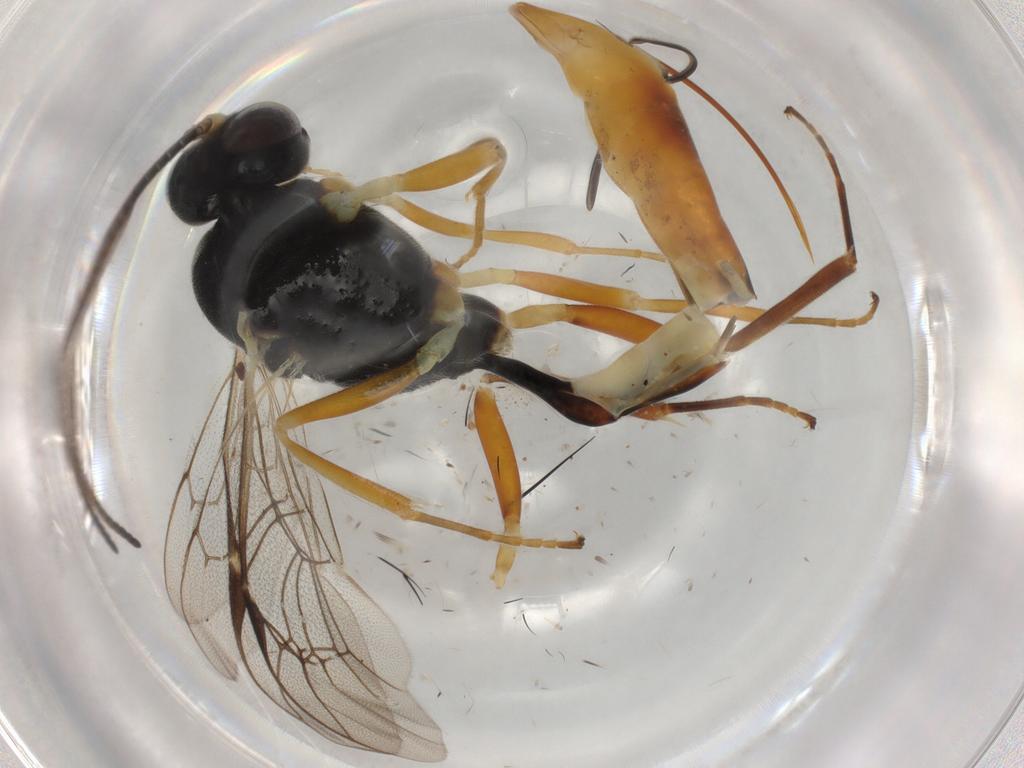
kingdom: Animalia
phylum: Arthropoda
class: Insecta
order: Hymenoptera
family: Ichneumonidae
